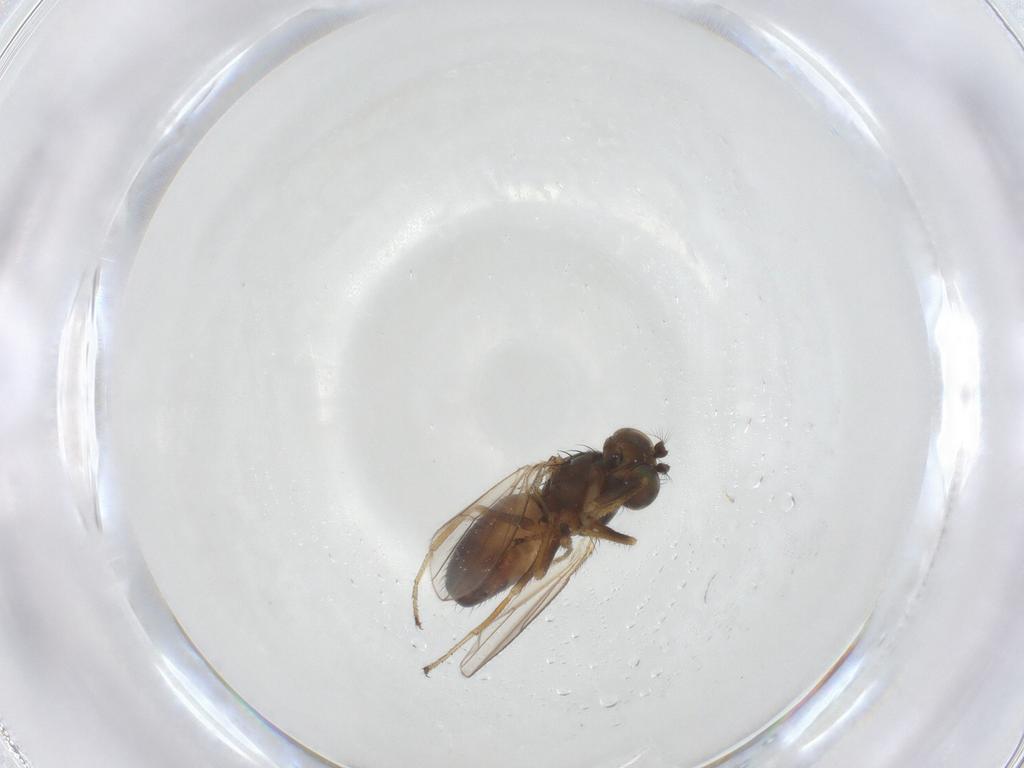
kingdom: Animalia
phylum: Arthropoda
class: Insecta
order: Diptera
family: Ephydridae
